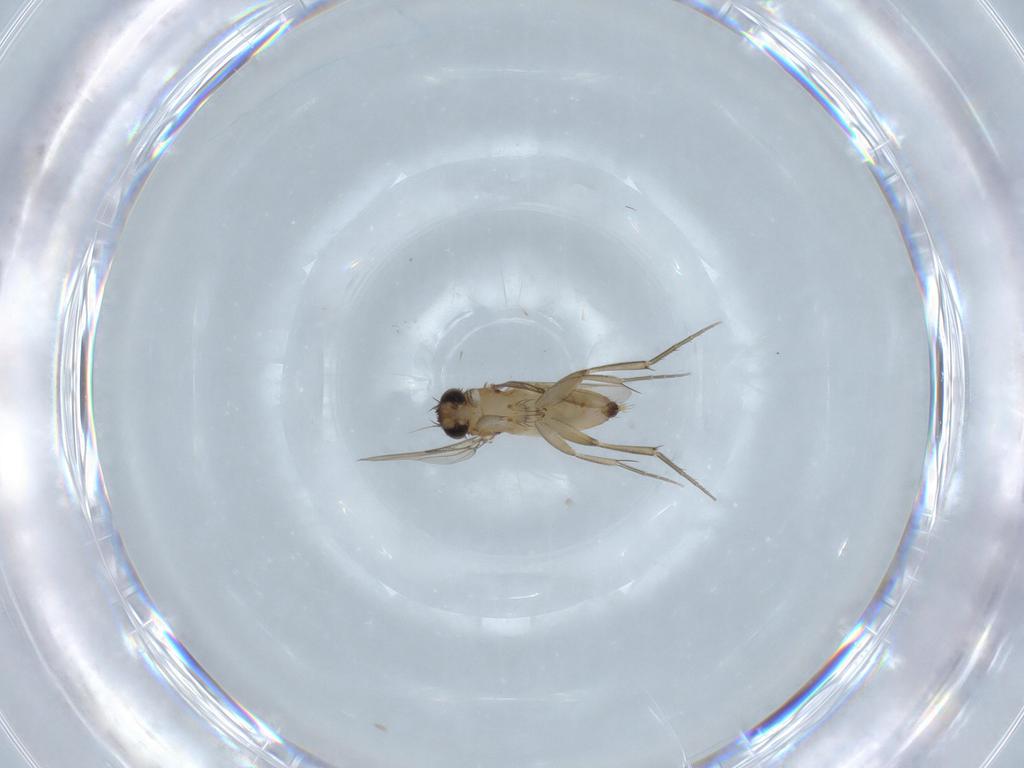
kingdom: Animalia
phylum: Arthropoda
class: Insecta
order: Diptera
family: Phoridae
